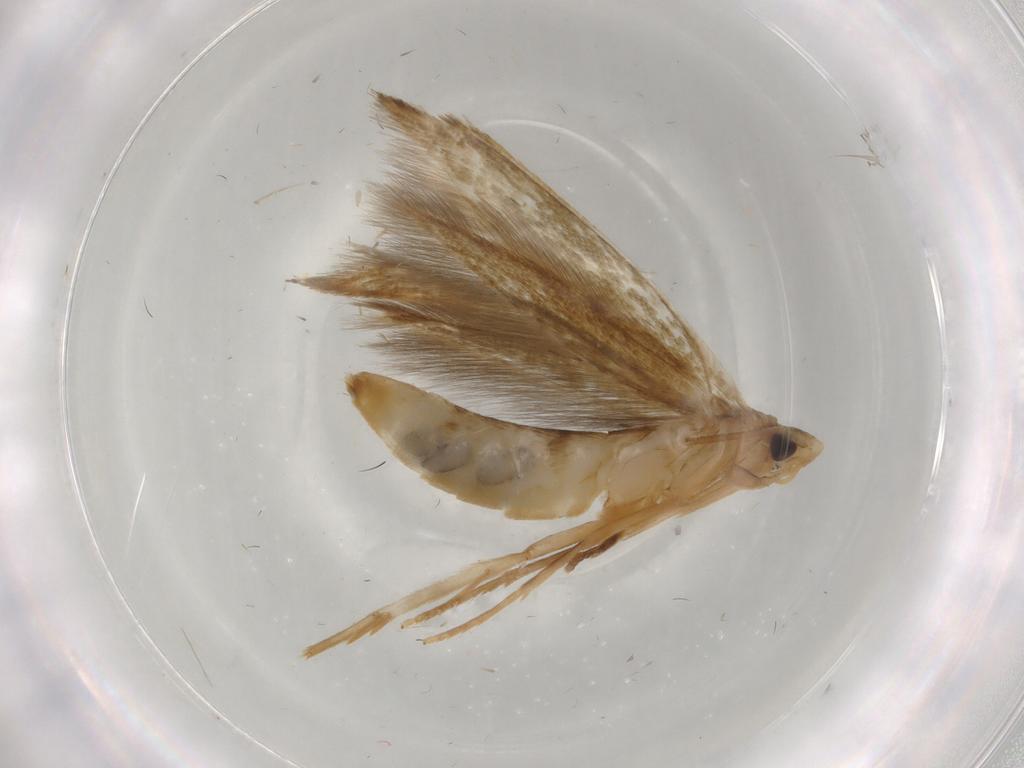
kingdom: Animalia
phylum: Arthropoda
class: Insecta
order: Lepidoptera
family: Tineidae
